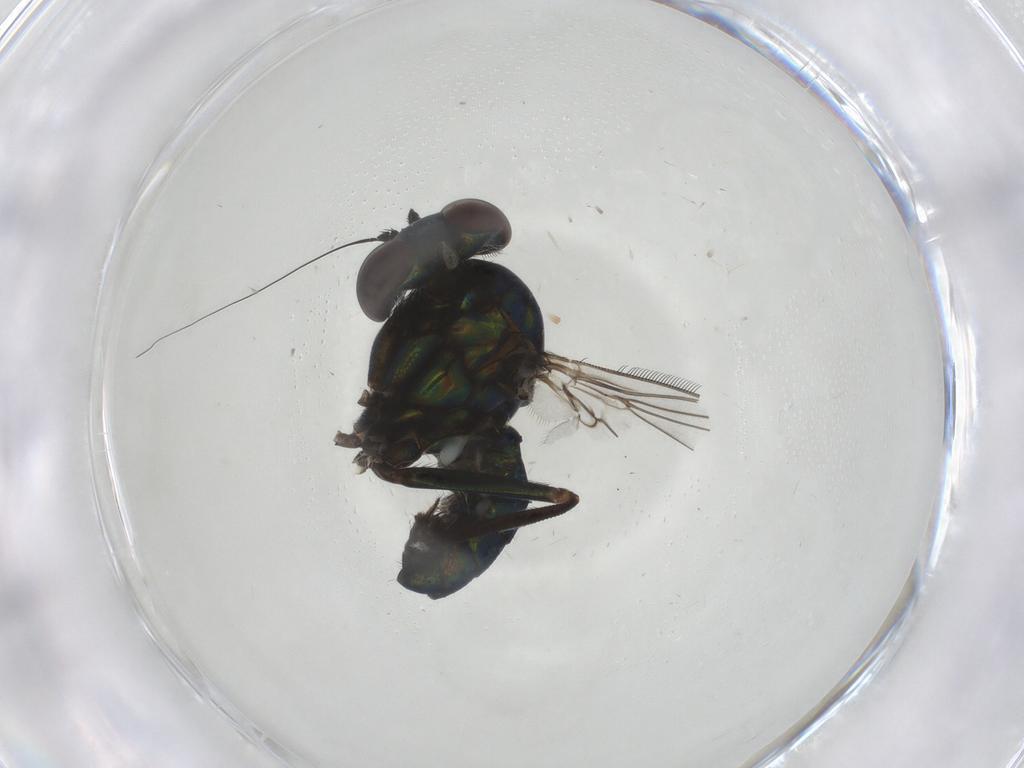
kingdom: Animalia
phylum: Arthropoda
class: Insecta
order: Diptera
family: Dolichopodidae
